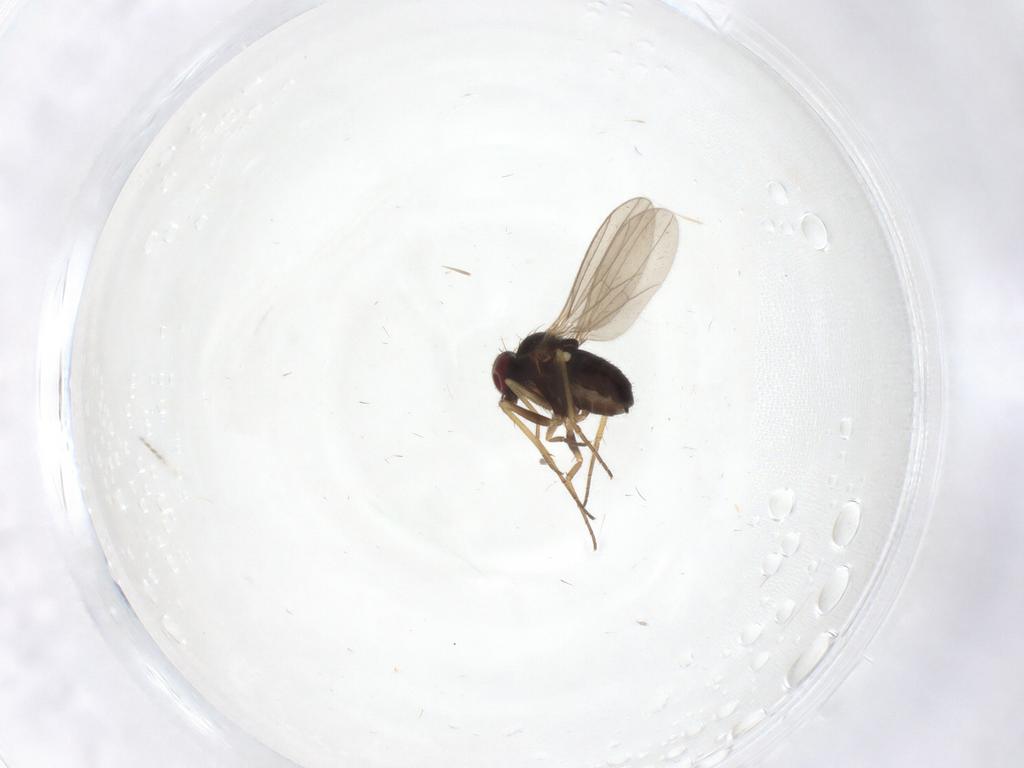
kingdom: Animalia
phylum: Arthropoda
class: Insecta
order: Diptera
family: Dolichopodidae
